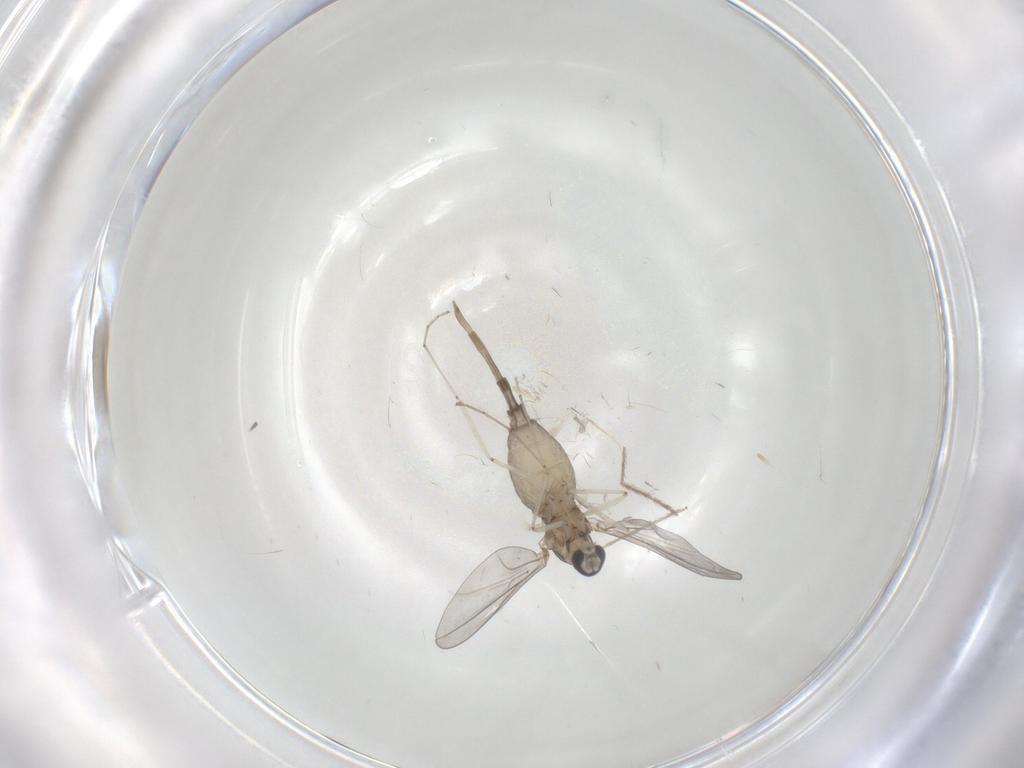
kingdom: Animalia
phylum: Arthropoda
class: Insecta
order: Diptera
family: Chironomidae
